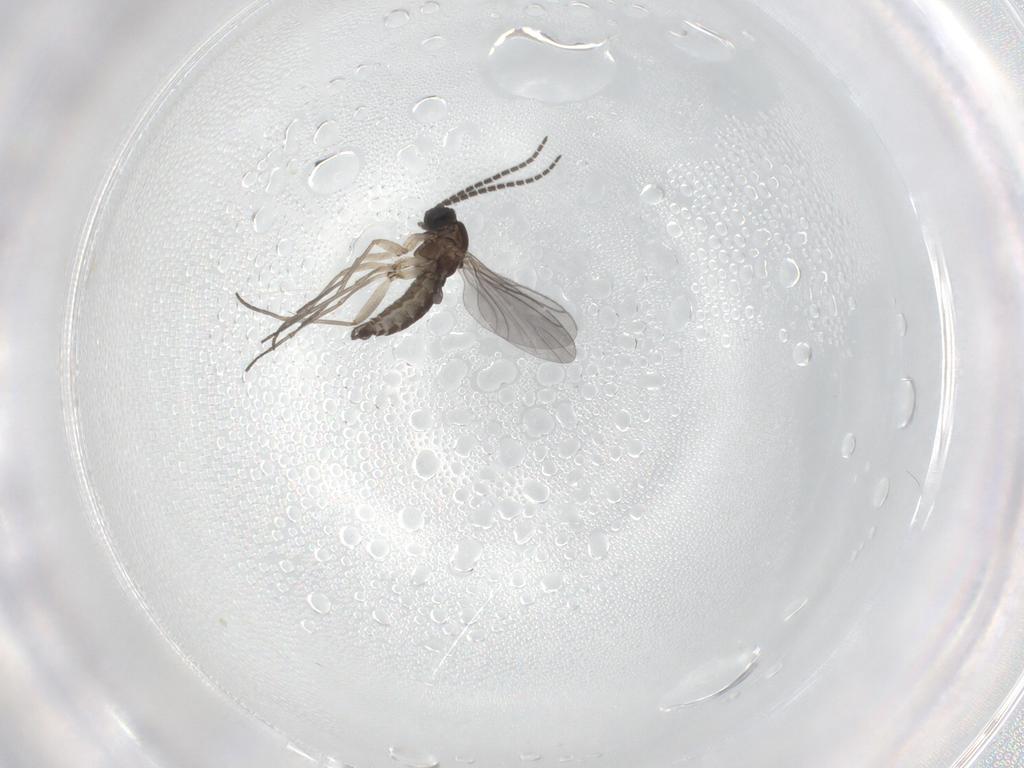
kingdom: Animalia
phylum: Arthropoda
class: Insecta
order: Diptera
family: Sciaridae
